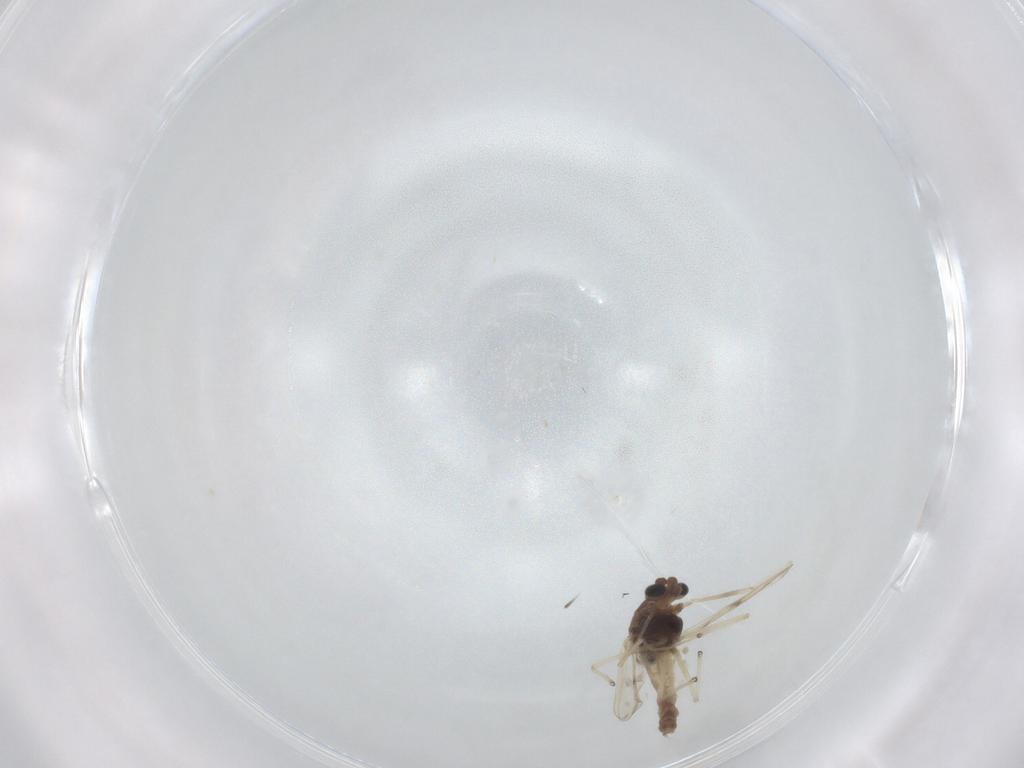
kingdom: Animalia
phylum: Arthropoda
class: Insecta
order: Diptera
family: Chironomidae
